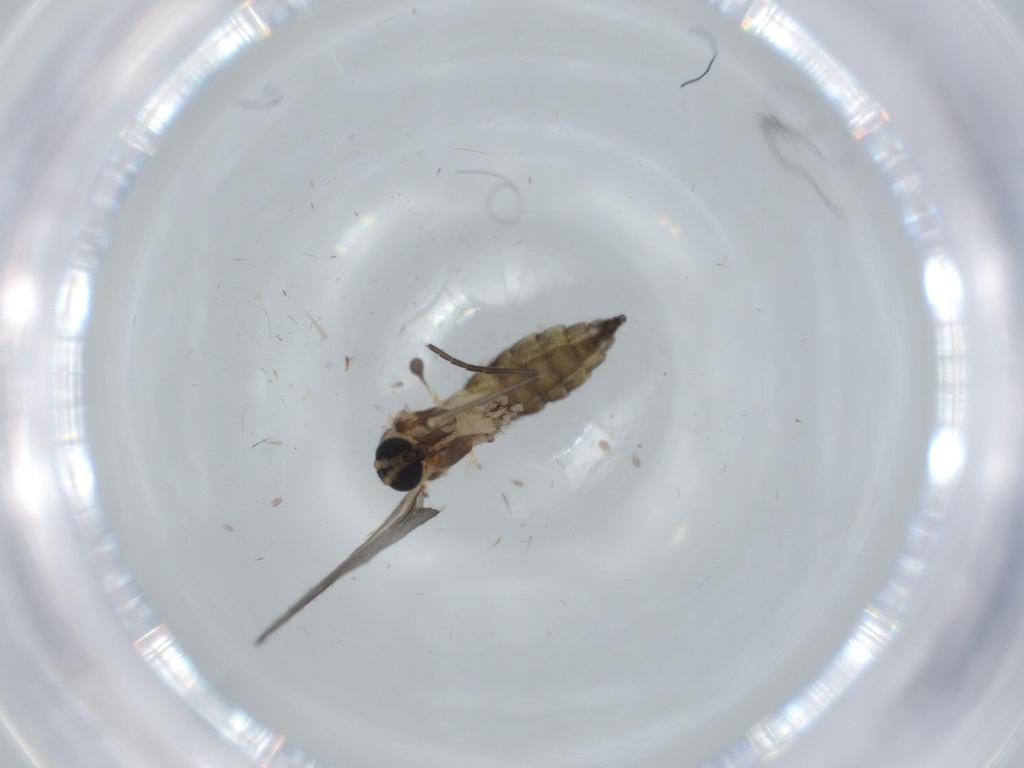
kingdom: Animalia
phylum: Arthropoda
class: Insecta
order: Diptera
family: Sciaridae
